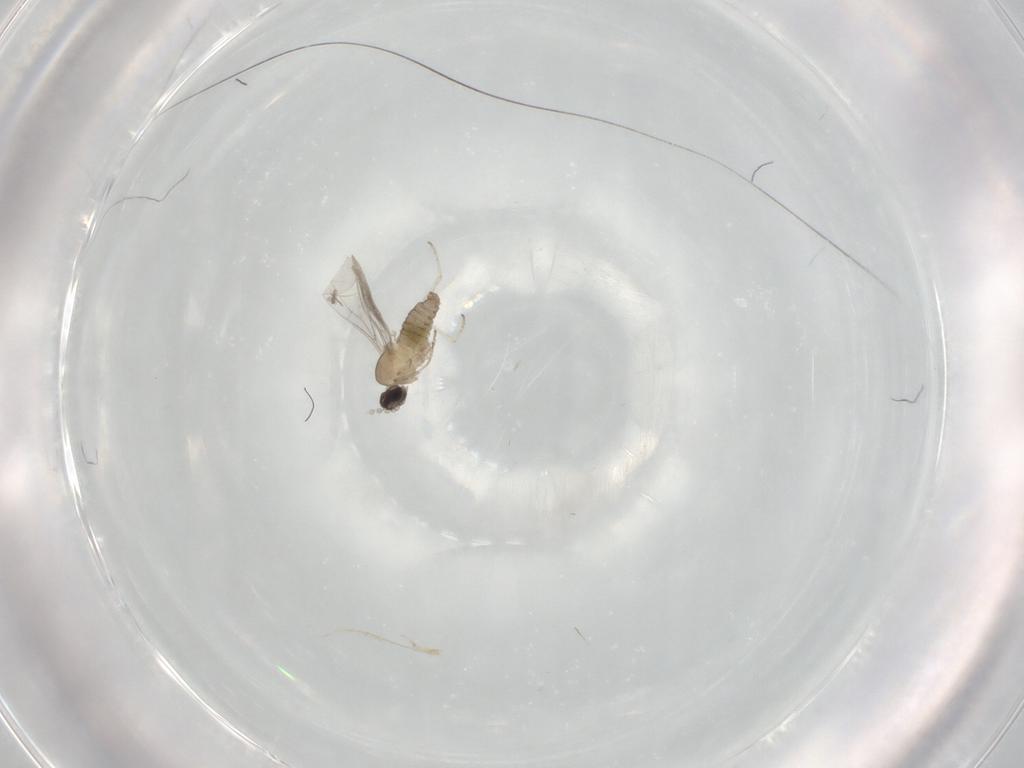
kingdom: Animalia
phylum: Arthropoda
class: Insecta
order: Diptera
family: Cecidomyiidae
